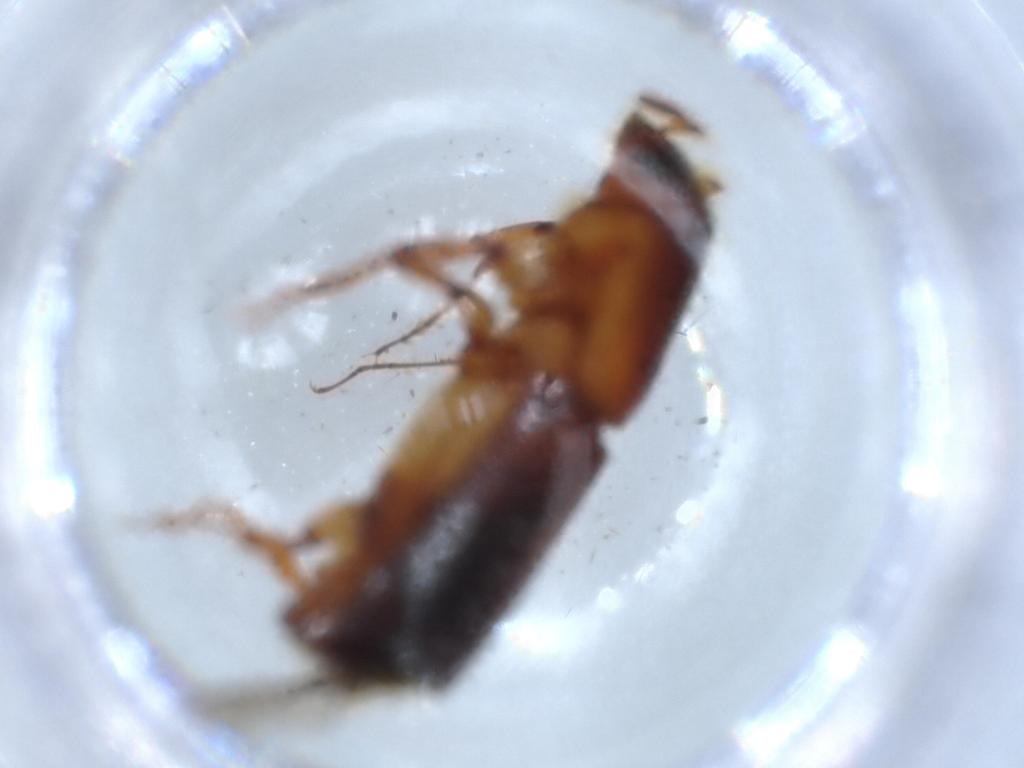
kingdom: Animalia
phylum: Arthropoda
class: Insecta
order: Coleoptera
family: Curculionidae
